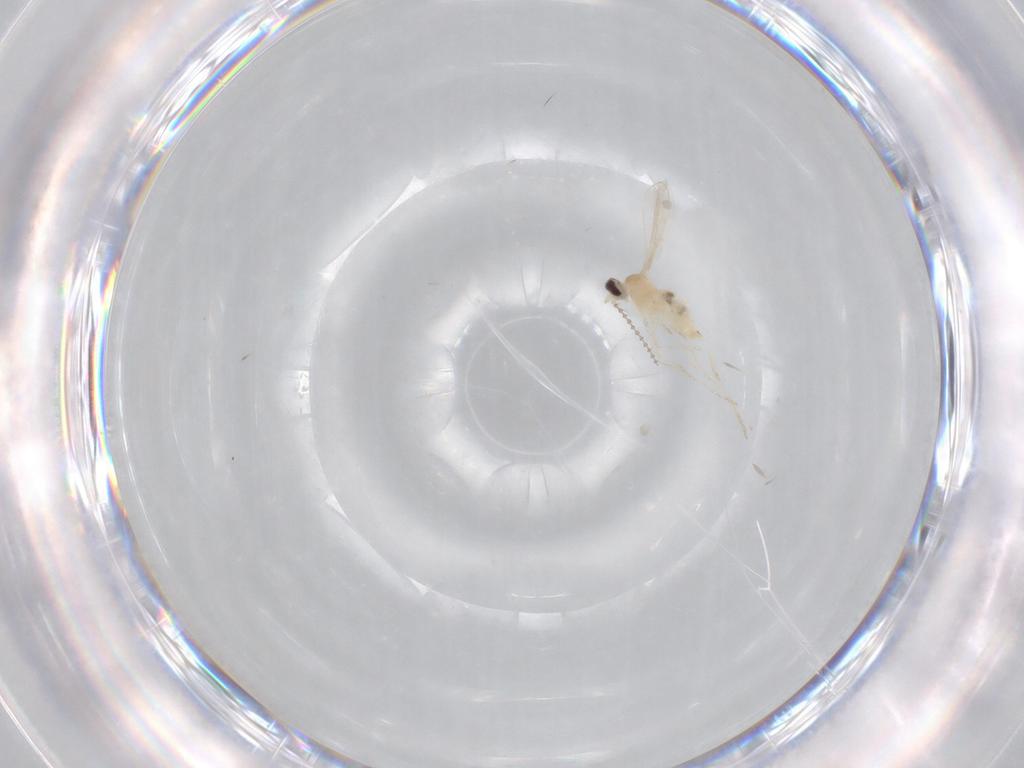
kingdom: Animalia
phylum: Arthropoda
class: Insecta
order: Diptera
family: Cecidomyiidae
